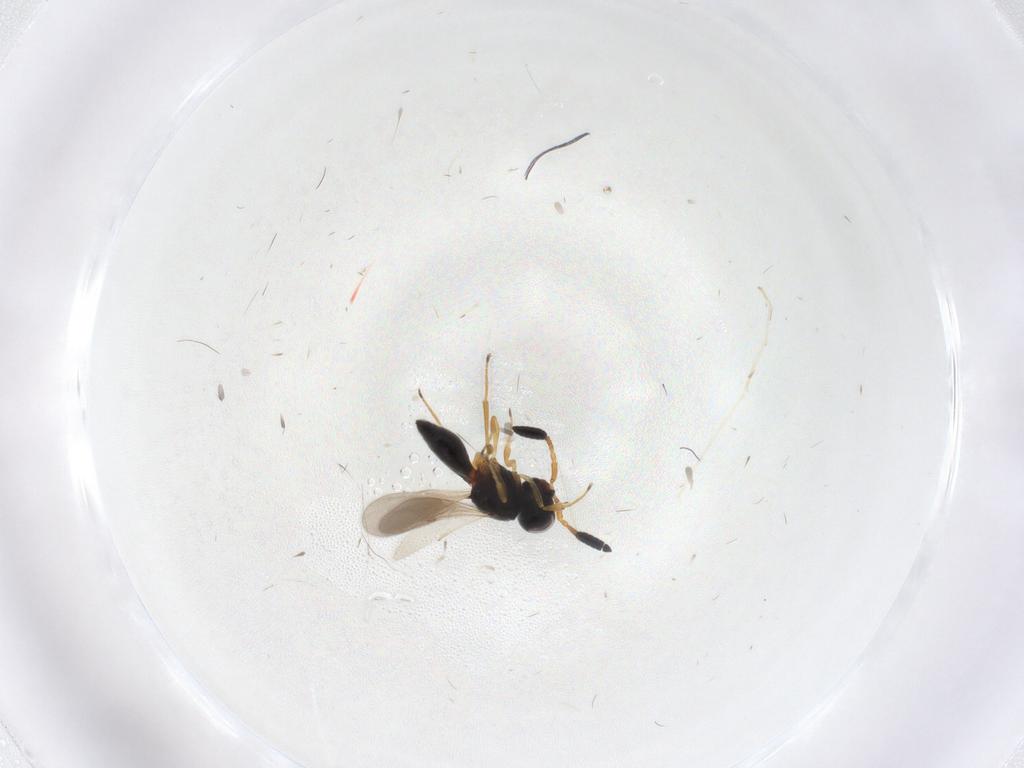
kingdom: Animalia
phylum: Arthropoda
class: Insecta
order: Hymenoptera
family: Scelionidae
